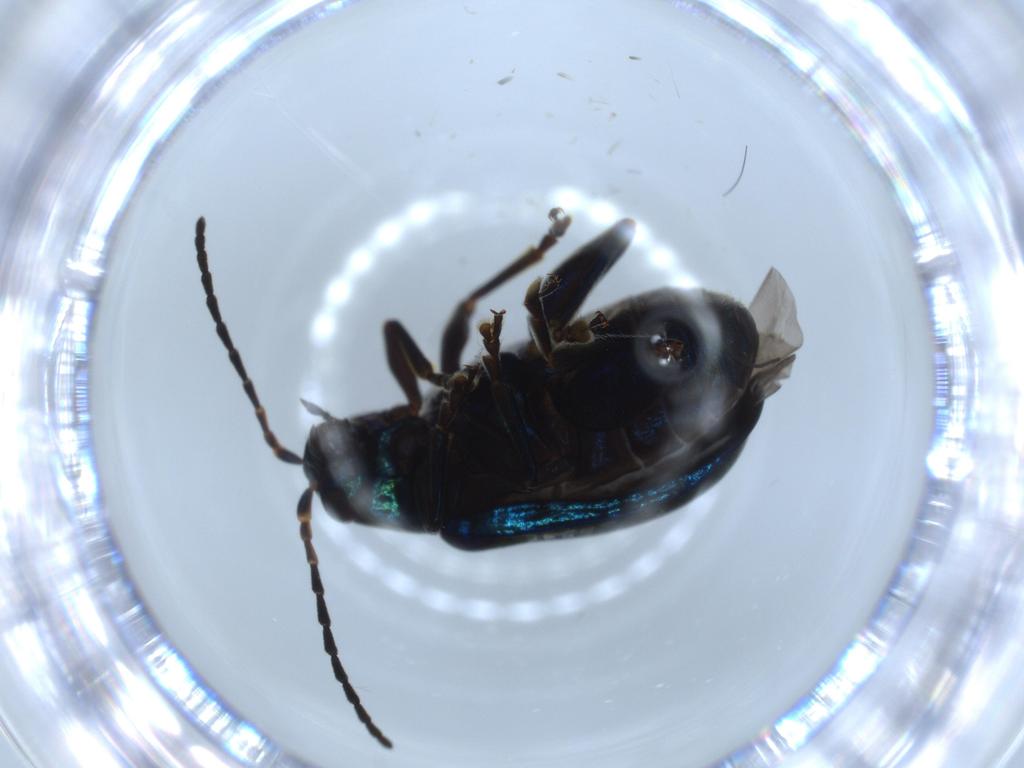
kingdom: Animalia
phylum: Arthropoda
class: Insecta
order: Coleoptera
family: Chrysomelidae
